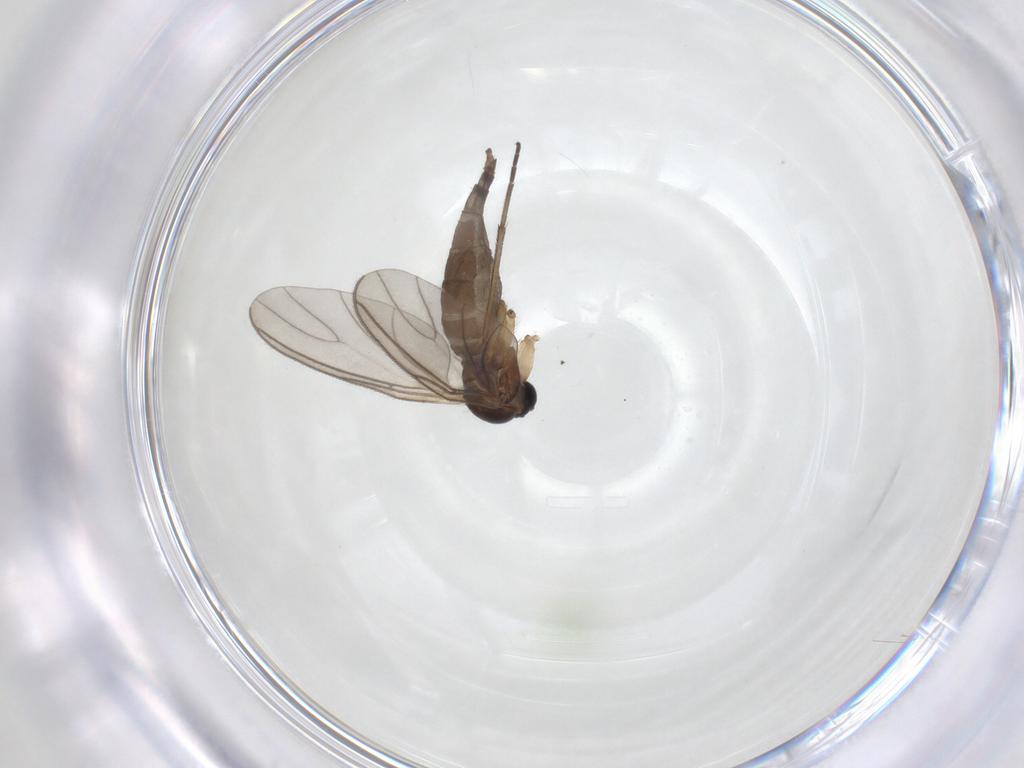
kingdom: Animalia
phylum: Arthropoda
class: Insecta
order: Diptera
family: Sciaridae
